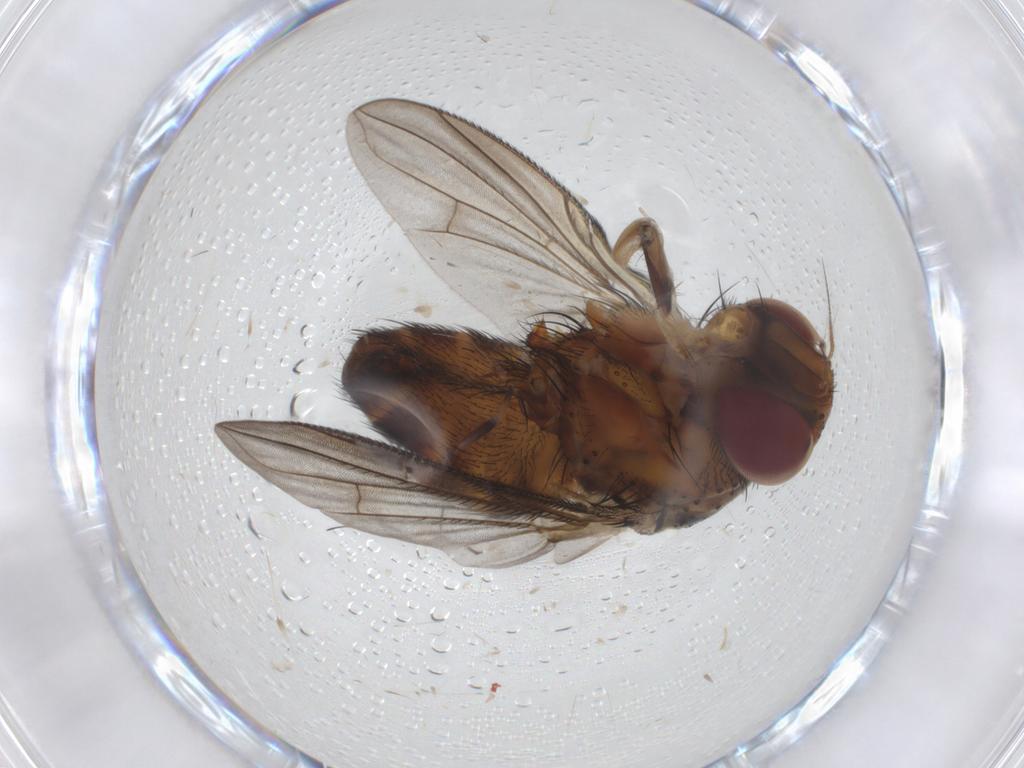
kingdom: Animalia
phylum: Arthropoda
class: Insecta
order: Diptera
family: Tachinidae
